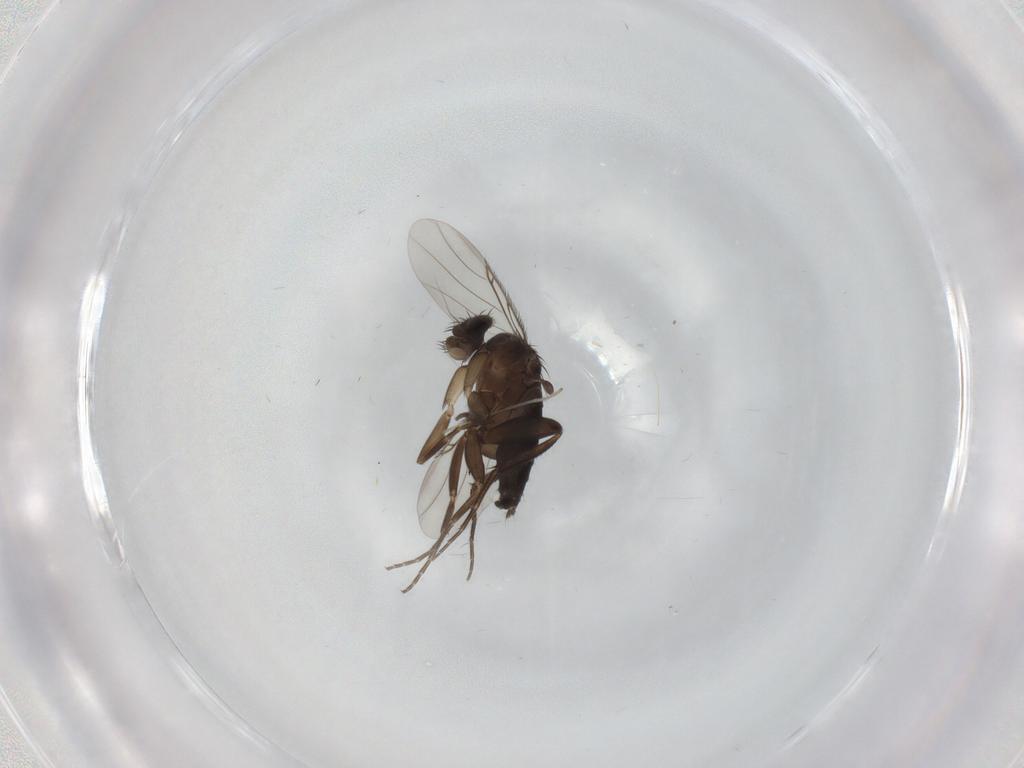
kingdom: Animalia
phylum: Arthropoda
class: Insecta
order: Diptera
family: Phoridae
